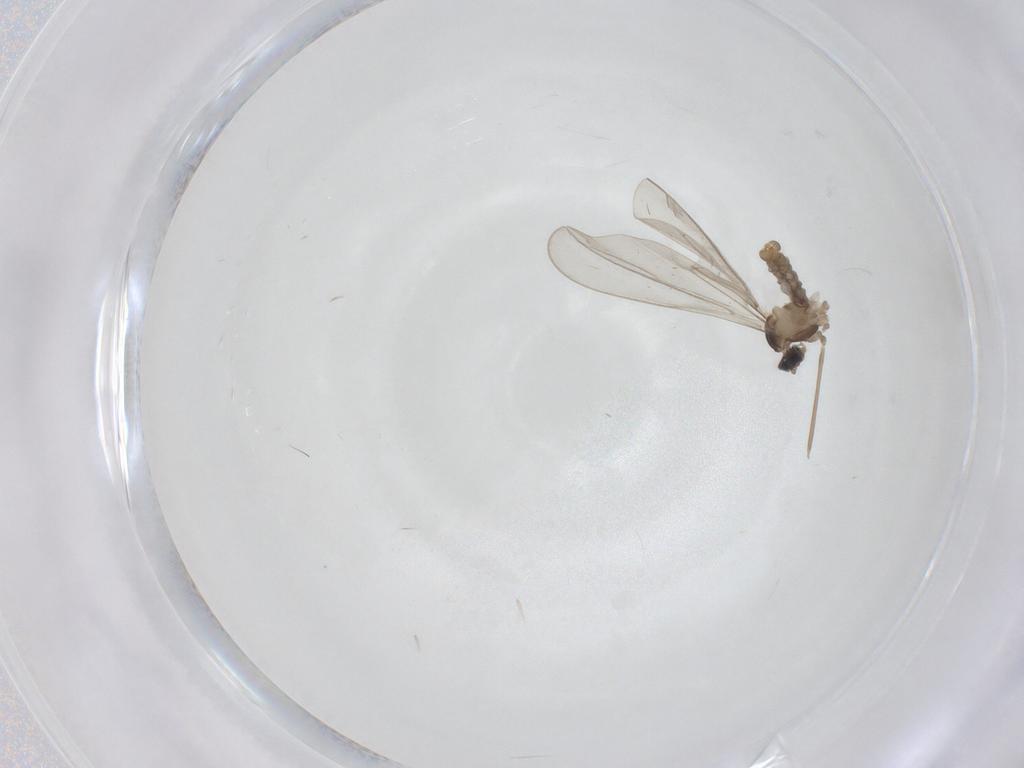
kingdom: Animalia
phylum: Arthropoda
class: Insecta
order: Diptera
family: Cecidomyiidae
